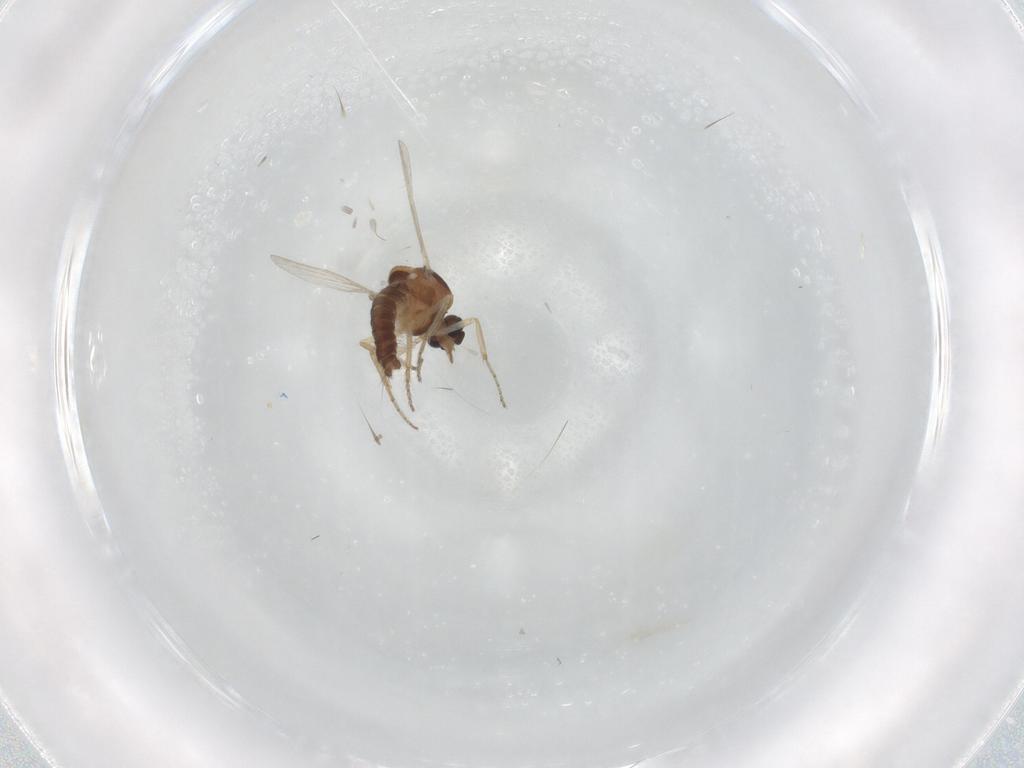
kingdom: Animalia
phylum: Arthropoda
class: Insecta
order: Diptera
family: Ceratopogonidae
